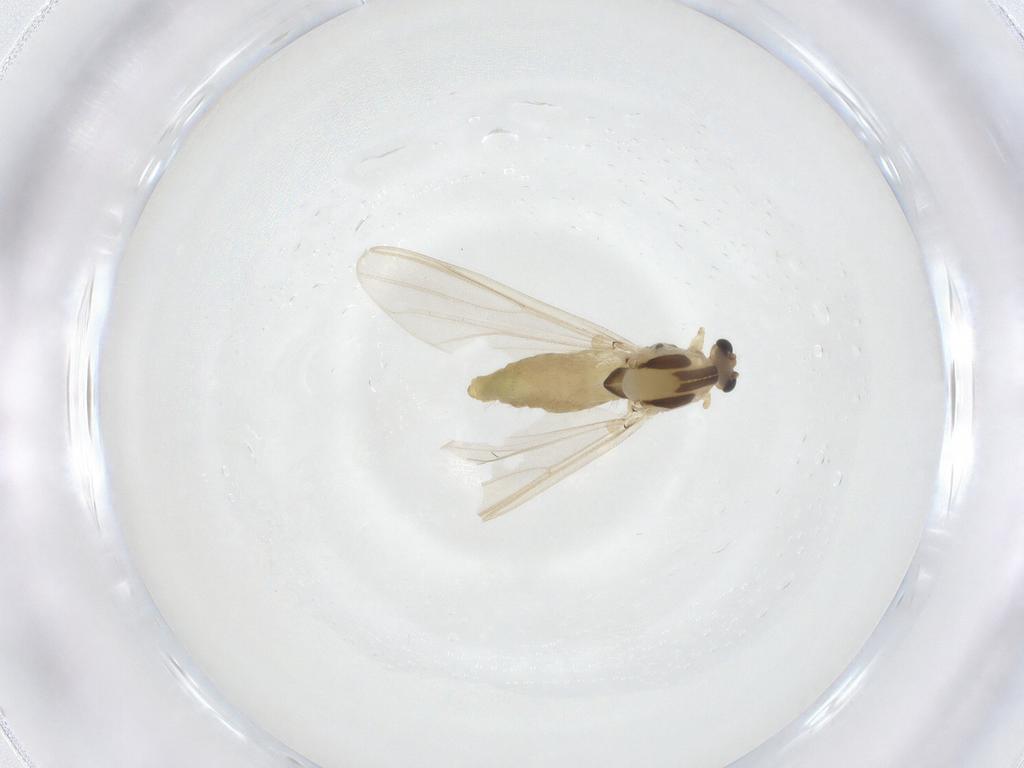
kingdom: Animalia
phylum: Arthropoda
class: Insecta
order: Diptera
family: Chironomidae
